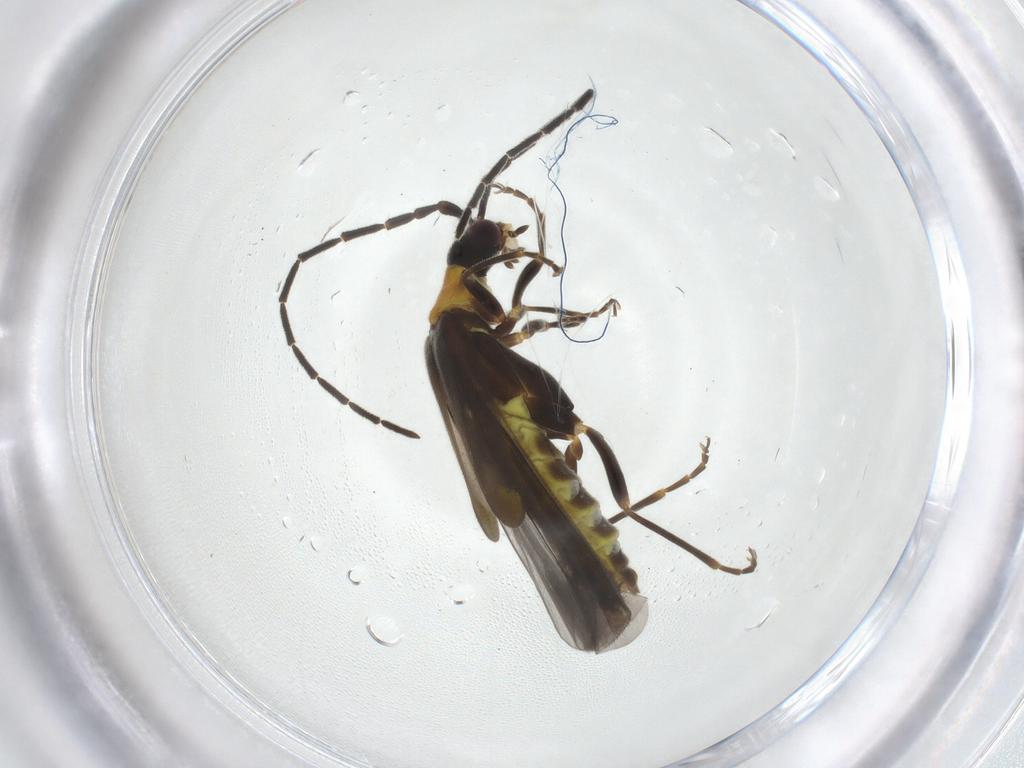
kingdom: Animalia
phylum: Arthropoda
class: Insecta
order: Coleoptera
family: Cantharidae
